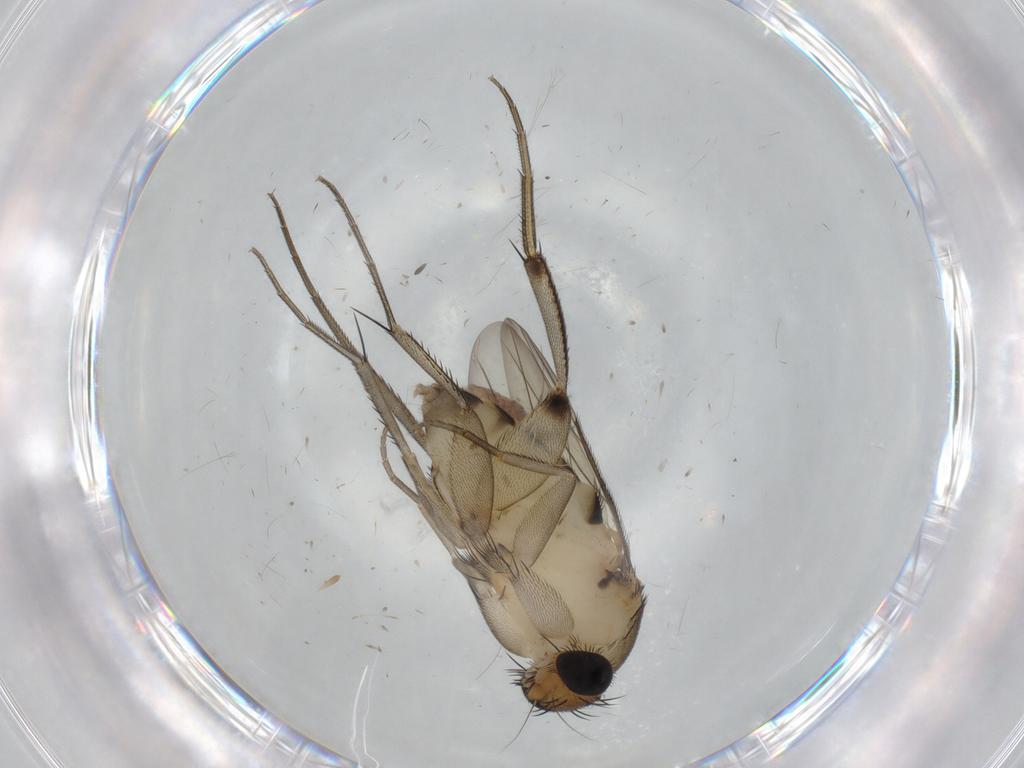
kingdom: Animalia
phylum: Arthropoda
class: Insecta
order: Diptera
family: Phoridae
